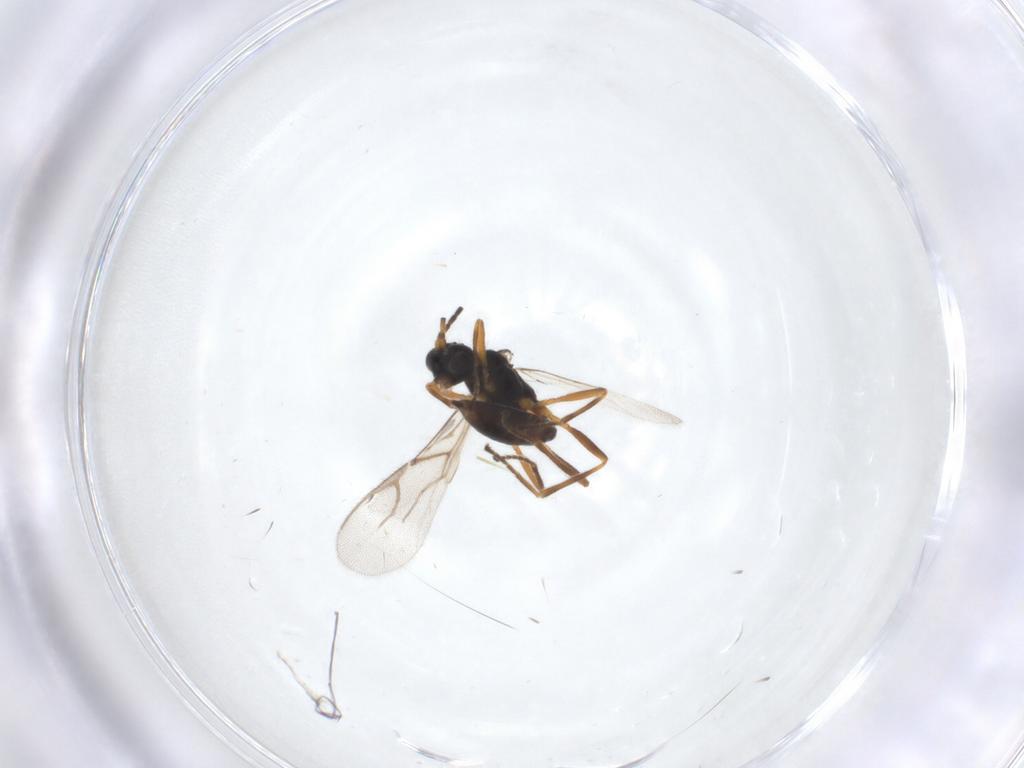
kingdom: Animalia
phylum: Arthropoda
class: Insecta
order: Hymenoptera
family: Braconidae
